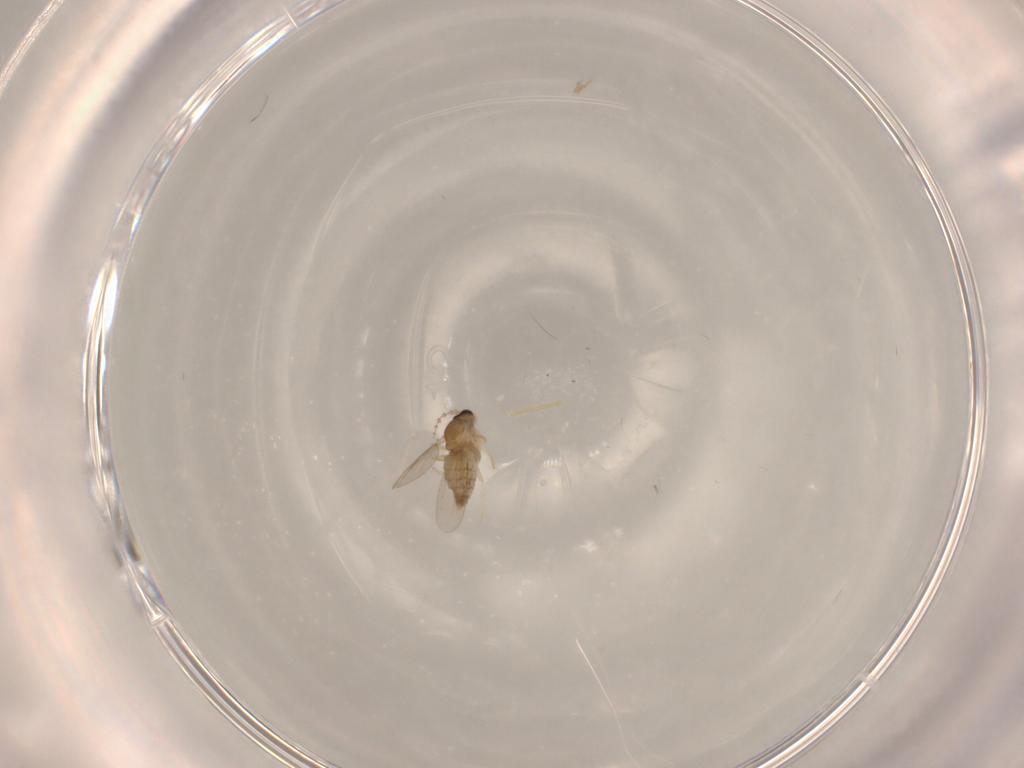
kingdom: Animalia
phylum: Arthropoda
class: Insecta
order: Diptera
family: Cecidomyiidae
